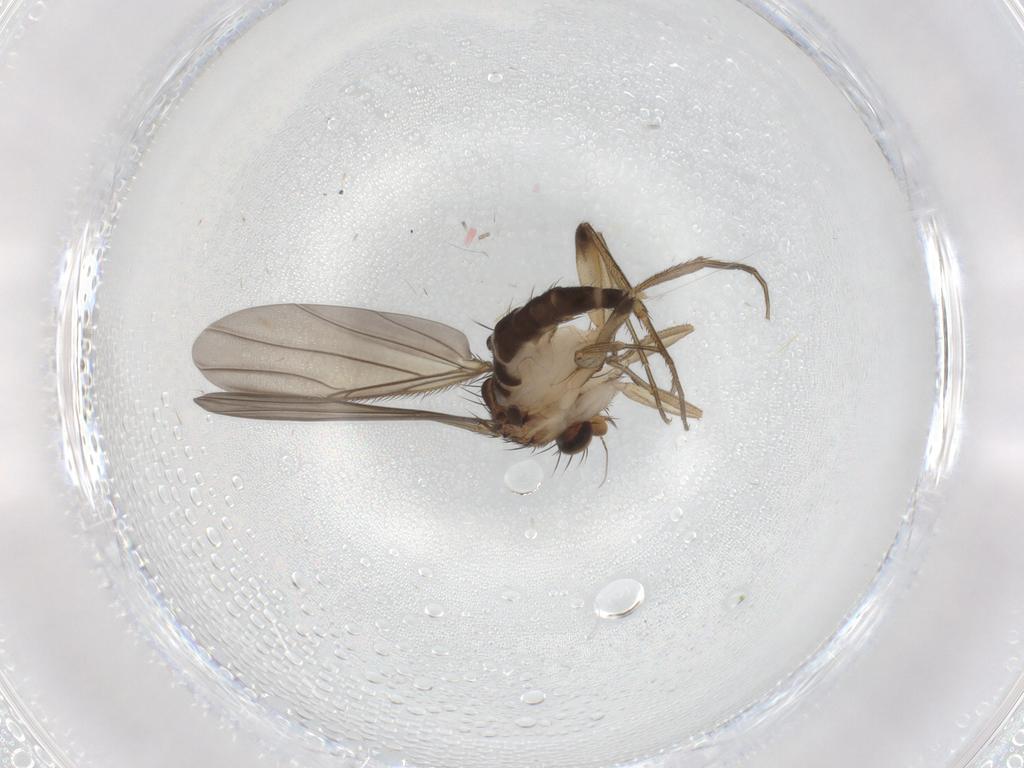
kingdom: Animalia
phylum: Arthropoda
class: Insecta
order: Diptera
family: Phoridae
